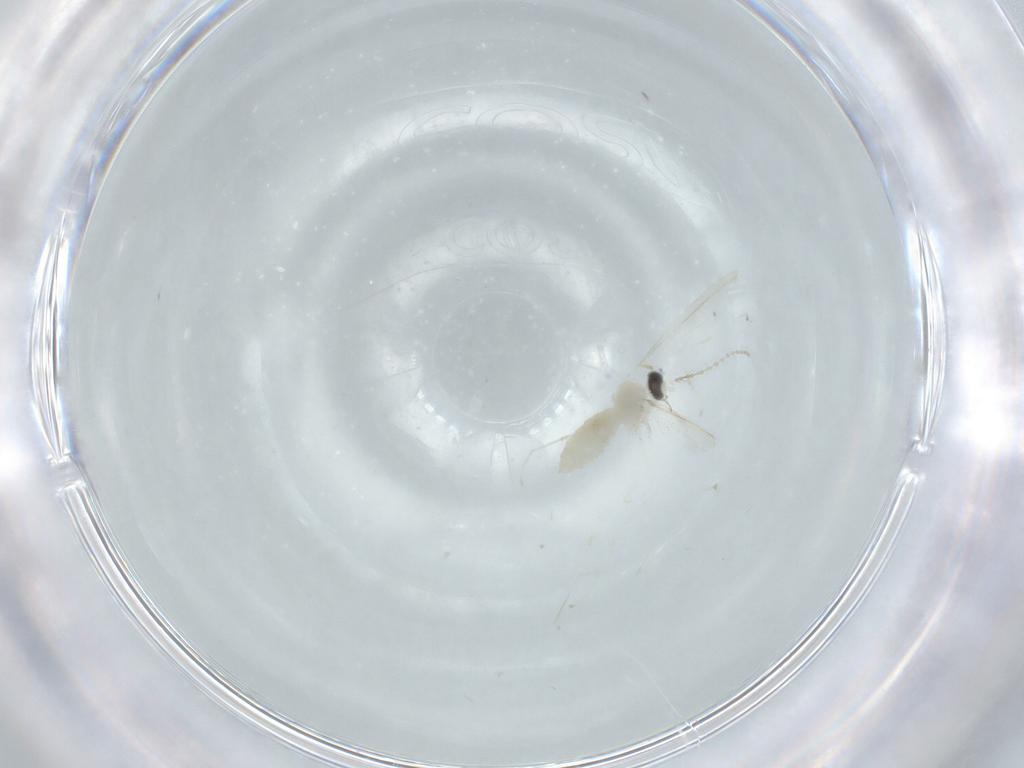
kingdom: Animalia
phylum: Arthropoda
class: Insecta
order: Diptera
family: Cecidomyiidae
